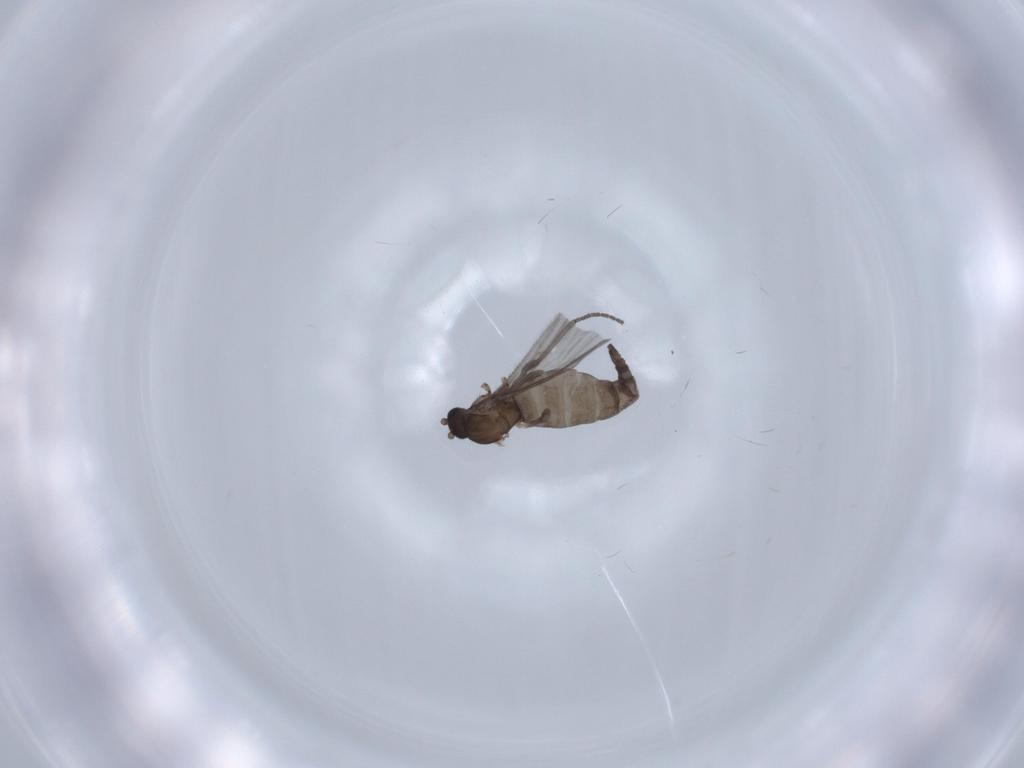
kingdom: Animalia
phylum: Arthropoda
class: Insecta
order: Diptera
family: Sciaridae
